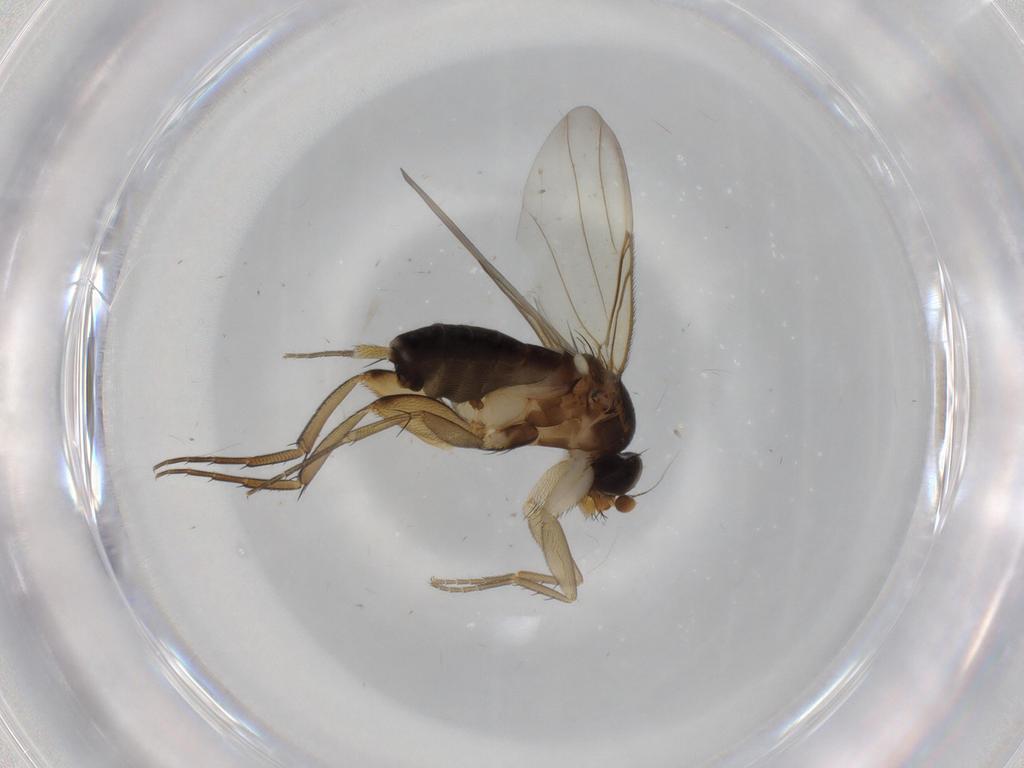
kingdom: Animalia
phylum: Arthropoda
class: Insecta
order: Diptera
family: Phoridae
